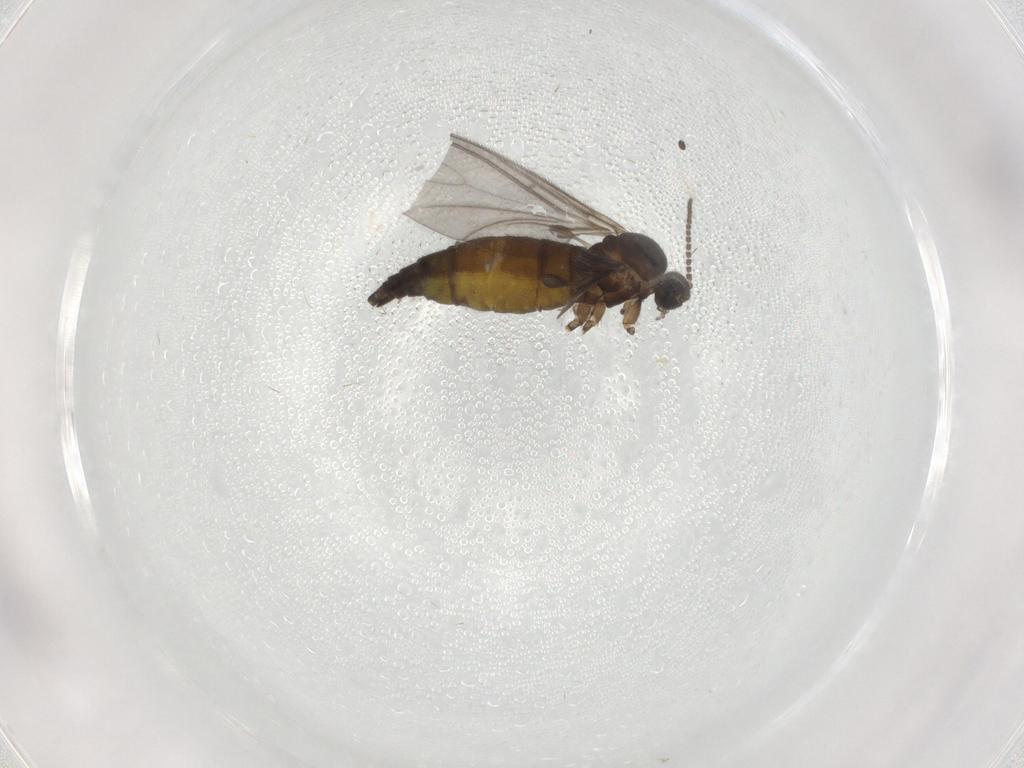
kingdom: Animalia
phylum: Arthropoda
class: Insecta
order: Diptera
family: Sciaridae
